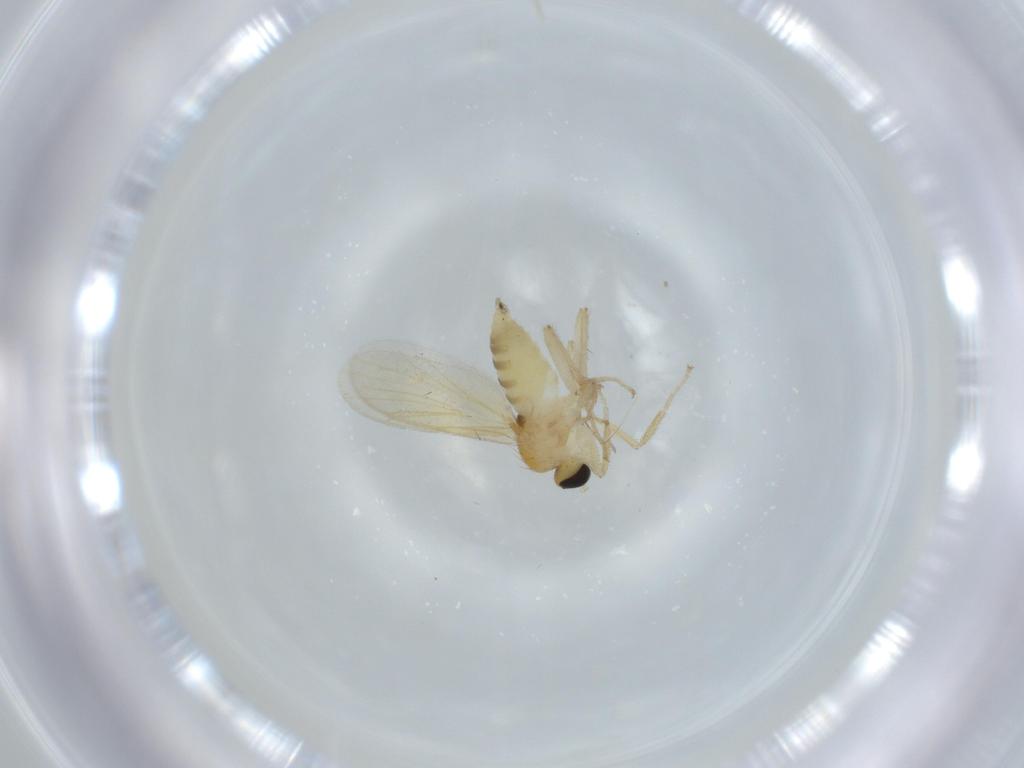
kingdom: Animalia
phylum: Arthropoda
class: Insecta
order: Diptera
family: Hybotidae
